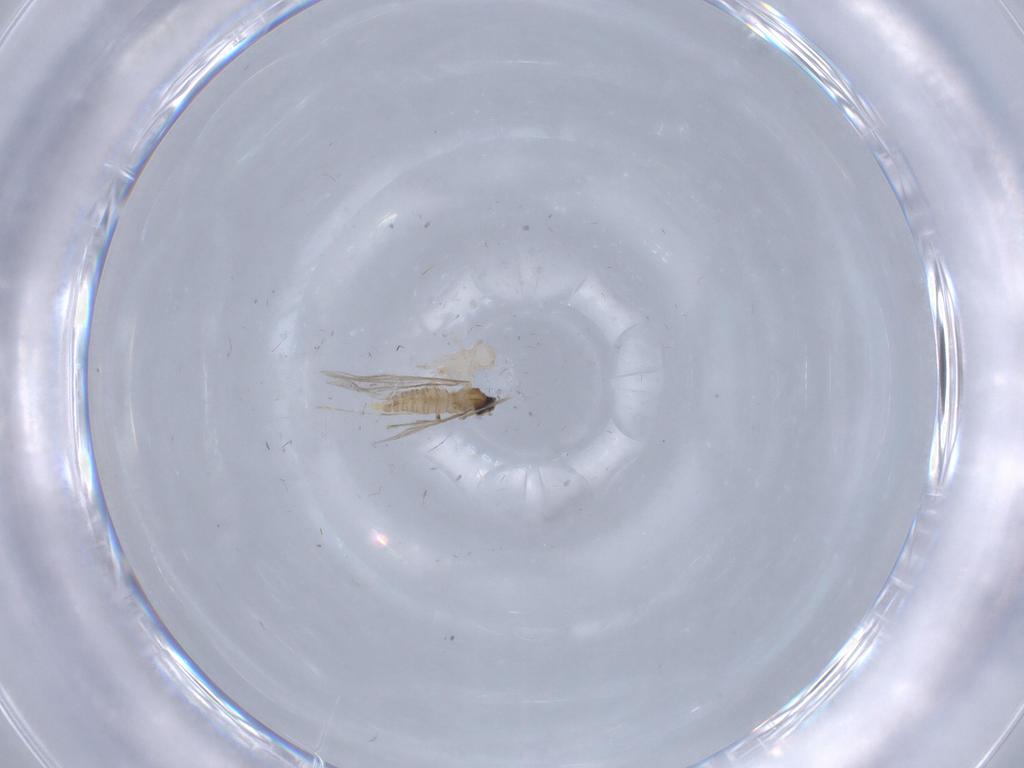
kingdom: Animalia
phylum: Arthropoda
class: Insecta
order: Diptera
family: Cecidomyiidae
